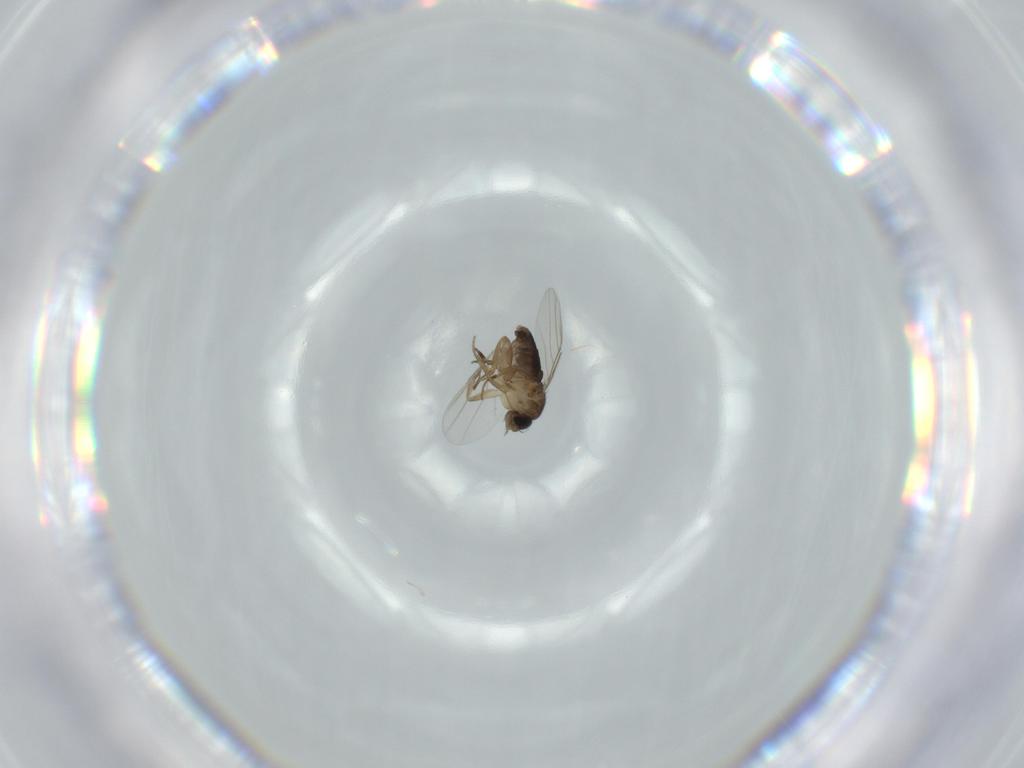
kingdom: Animalia
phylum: Arthropoda
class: Insecta
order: Diptera
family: Phoridae
